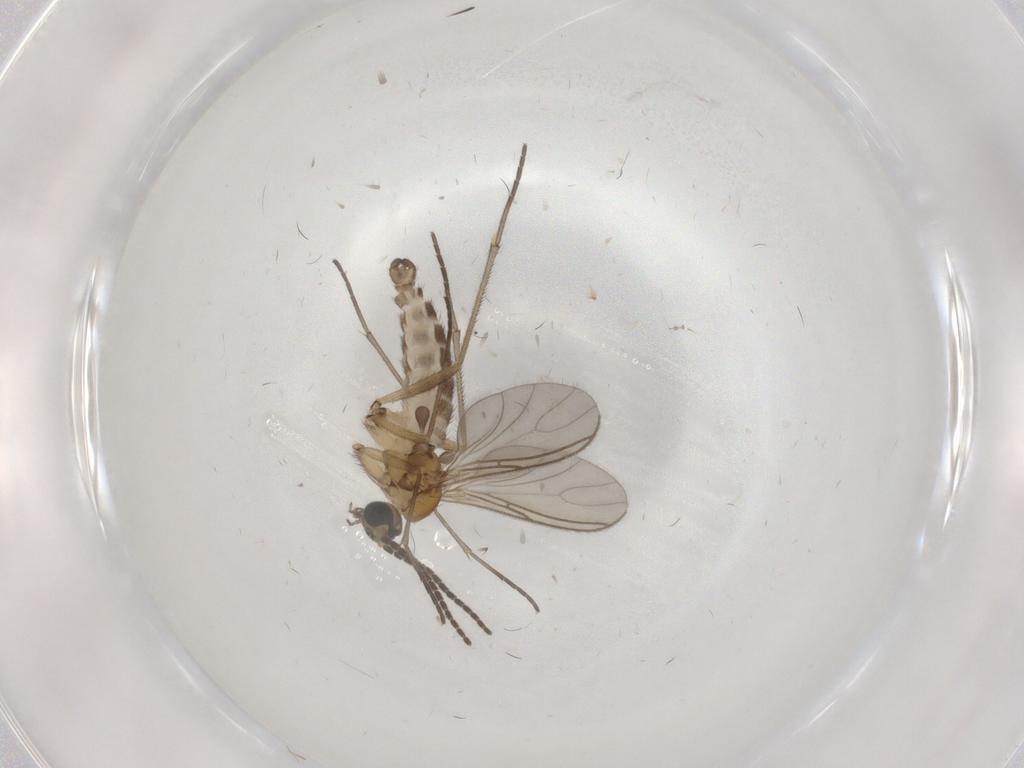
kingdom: Animalia
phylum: Arthropoda
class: Insecta
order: Diptera
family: Sciaridae
